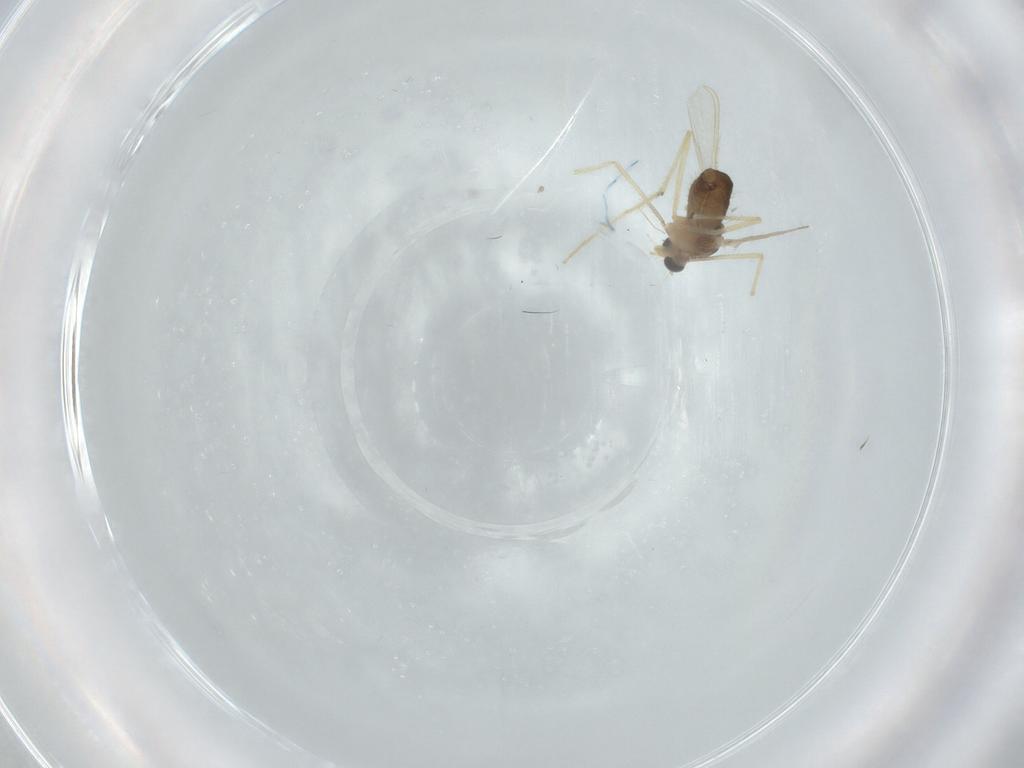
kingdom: Animalia
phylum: Arthropoda
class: Insecta
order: Diptera
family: Chironomidae
